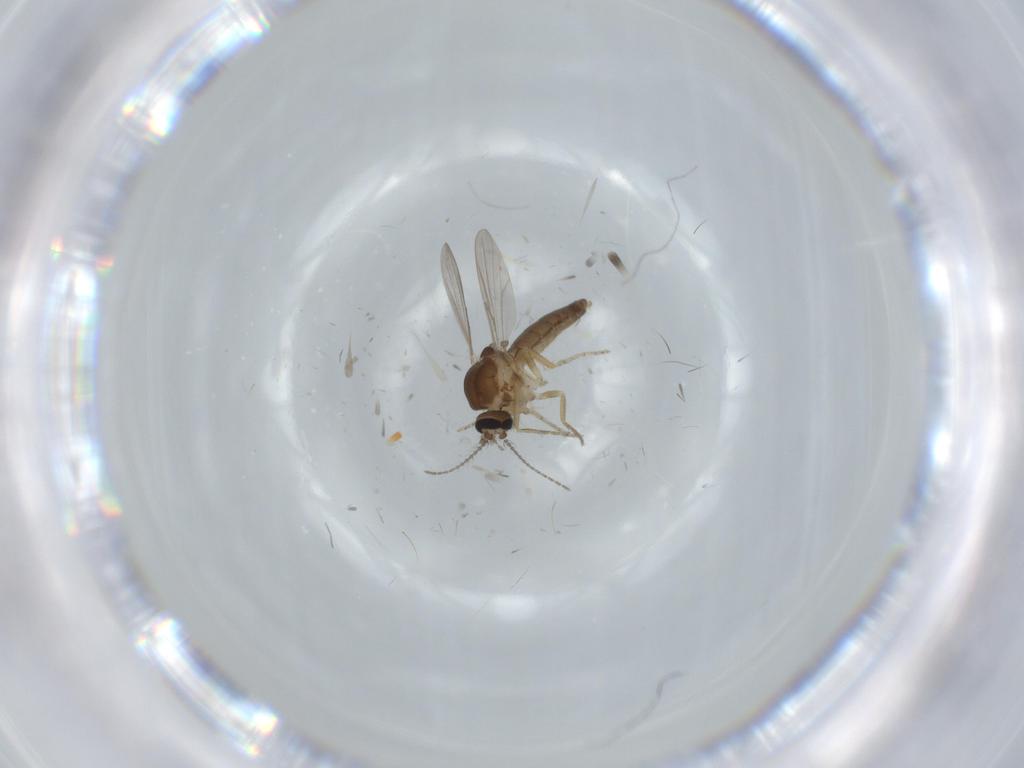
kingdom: Animalia
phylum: Arthropoda
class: Insecta
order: Diptera
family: Ceratopogonidae
